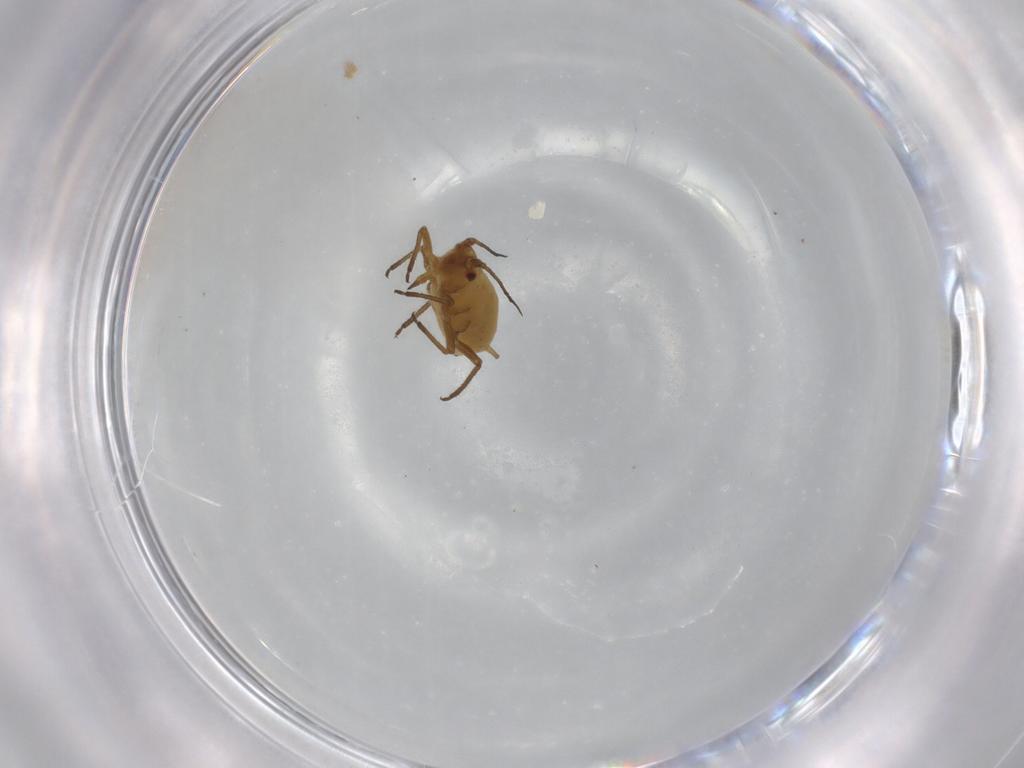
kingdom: Animalia
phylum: Arthropoda
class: Insecta
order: Hemiptera
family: Aphididae
